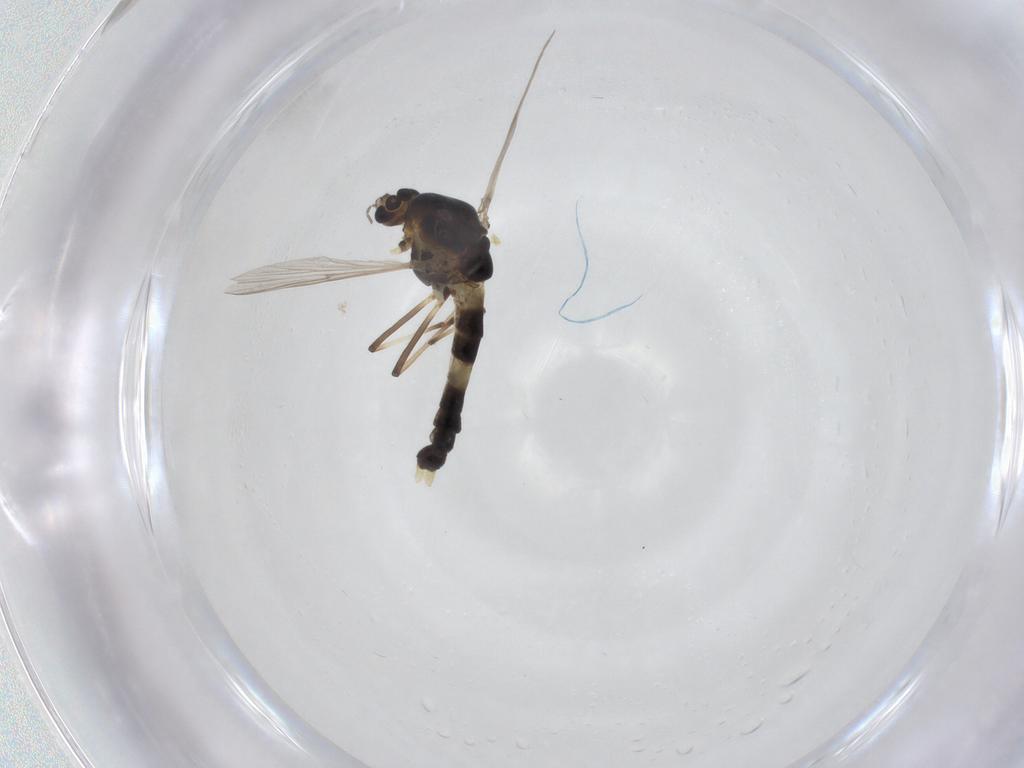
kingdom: Animalia
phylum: Arthropoda
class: Insecta
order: Diptera
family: Chironomidae
